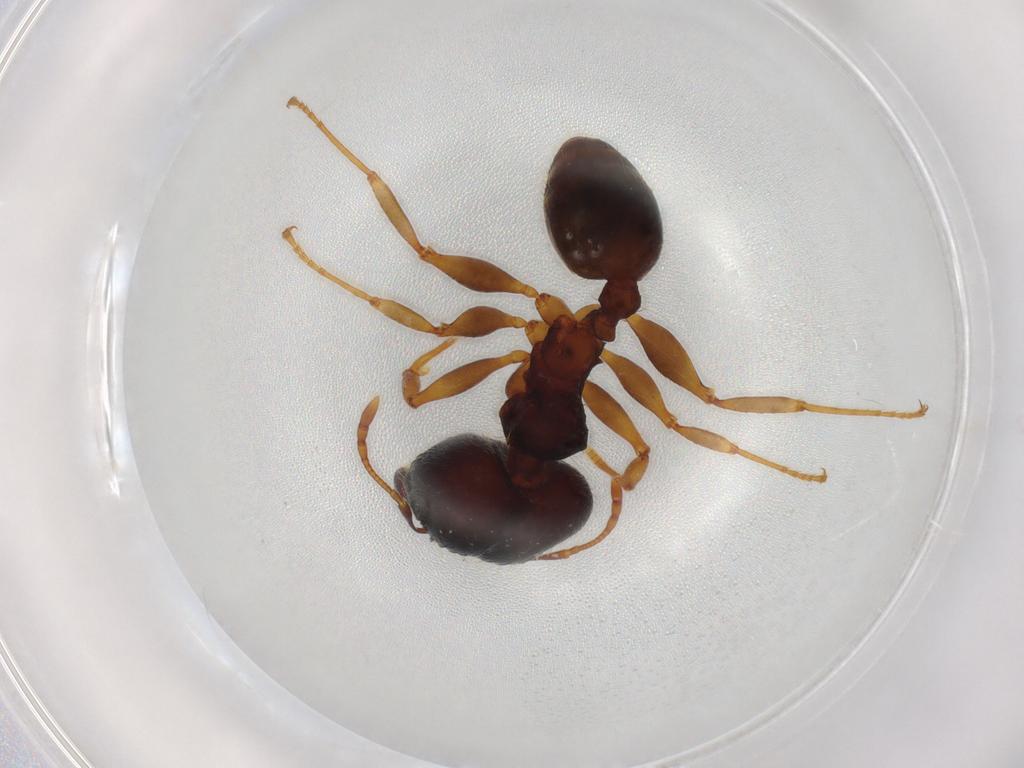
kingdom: Animalia
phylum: Arthropoda
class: Insecta
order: Hymenoptera
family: Formicidae
